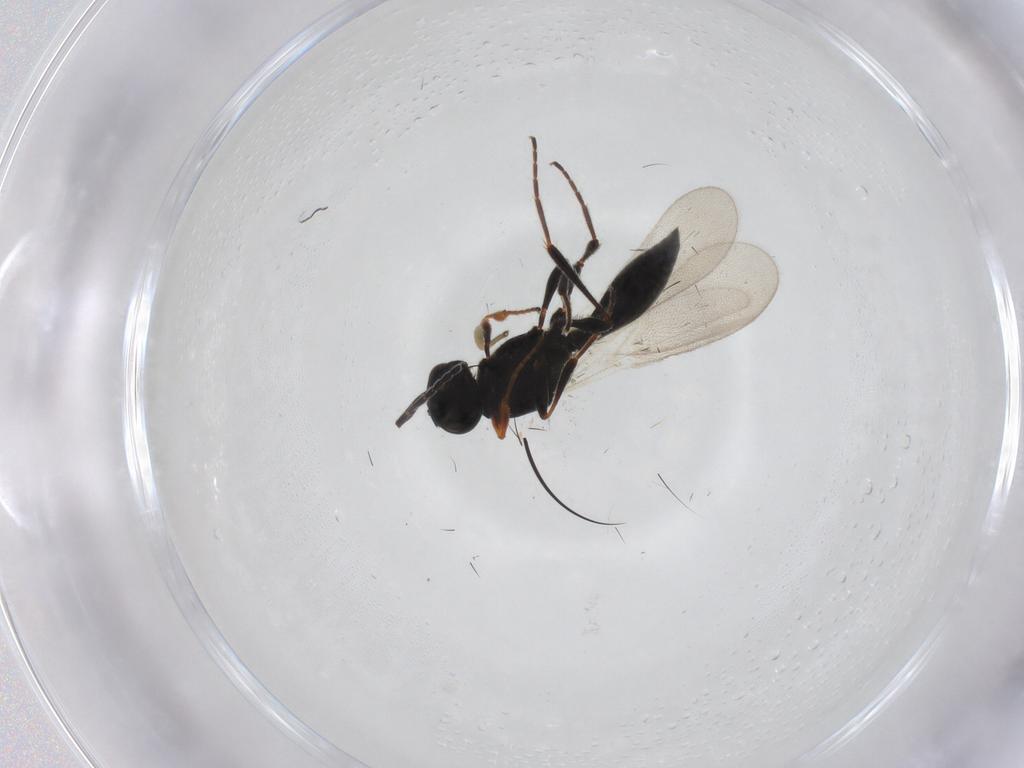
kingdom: Animalia
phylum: Arthropoda
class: Insecta
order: Hymenoptera
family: Platygastridae
